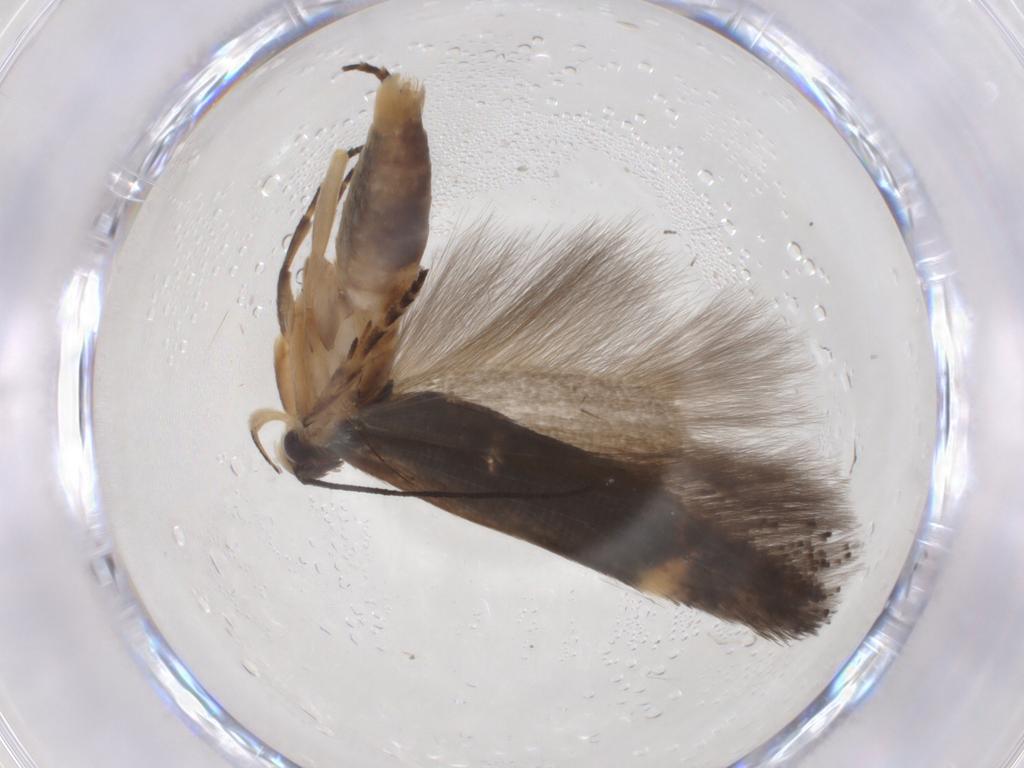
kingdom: Animalia
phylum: Arthropoda
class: Insecta
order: Lepidoptera
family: Gelechiidae
